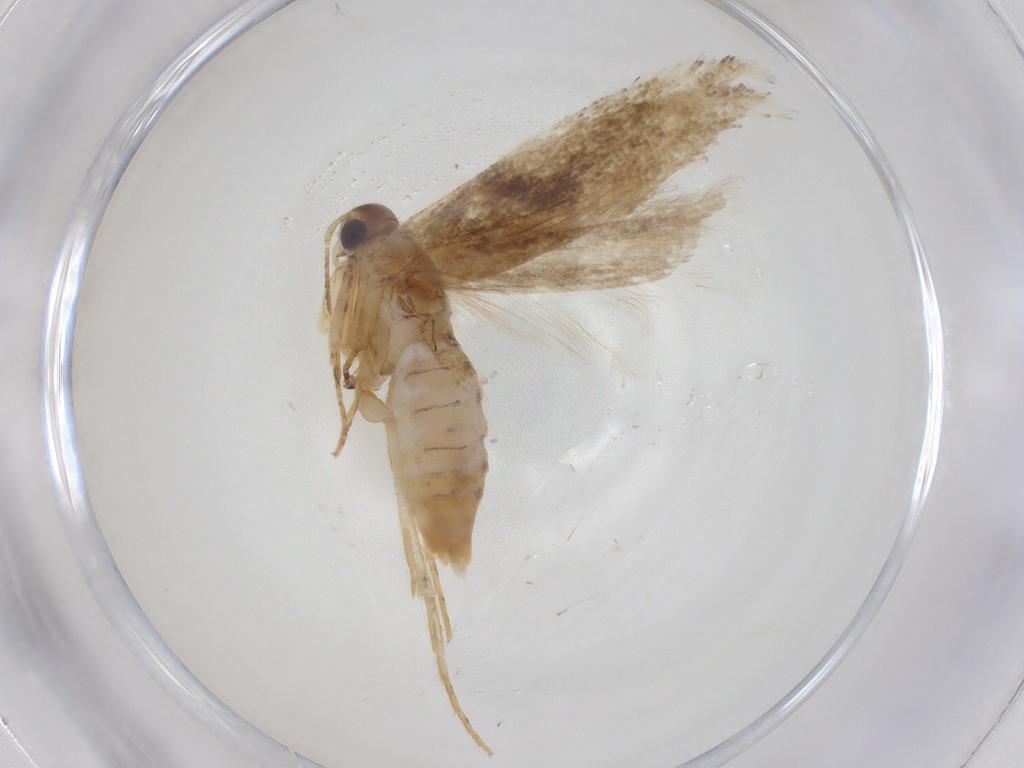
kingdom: Animalia
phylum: Arthropoda
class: Insecta
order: Lepidoptera
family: Gelechiidae
